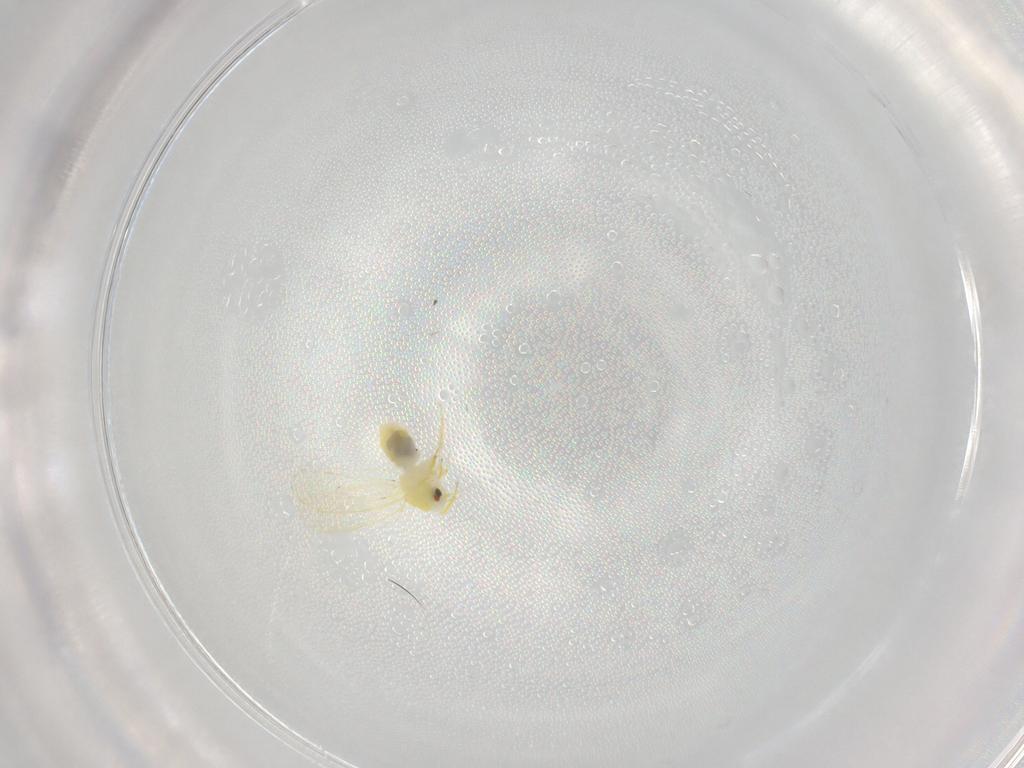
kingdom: Animalia
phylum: Arthropoda
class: Insecta
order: Hemiptera
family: Aleyrodidae
